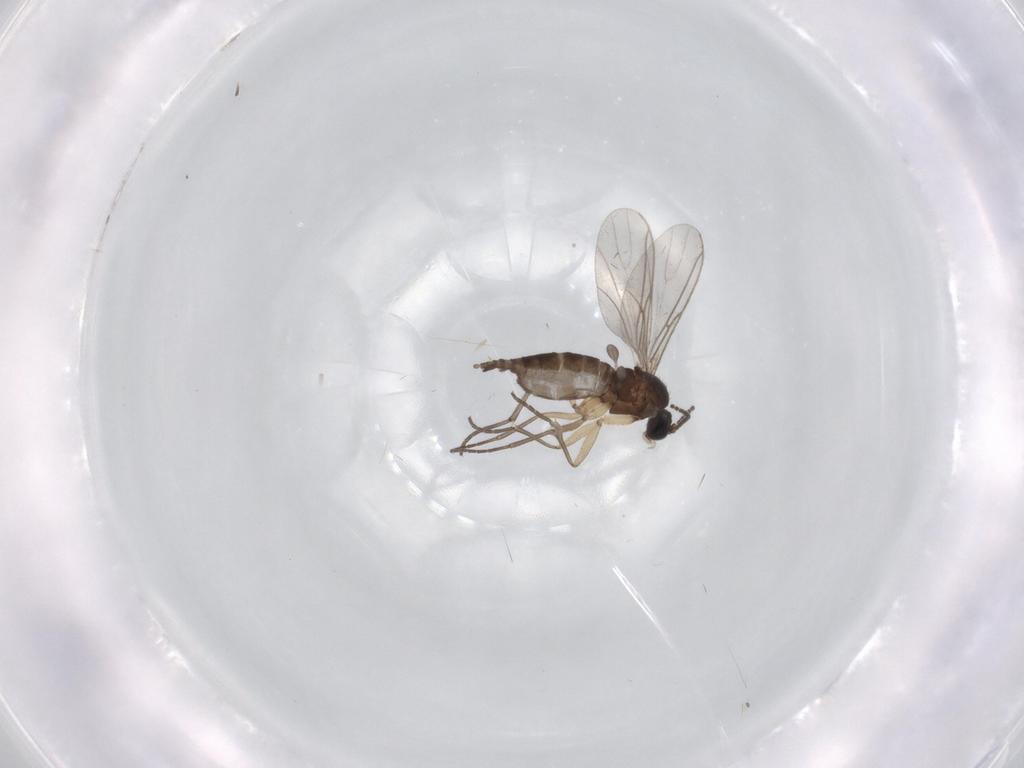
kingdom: Animalia
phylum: Arthropoda
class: Insecta
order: Diptera
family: Sciaridae
